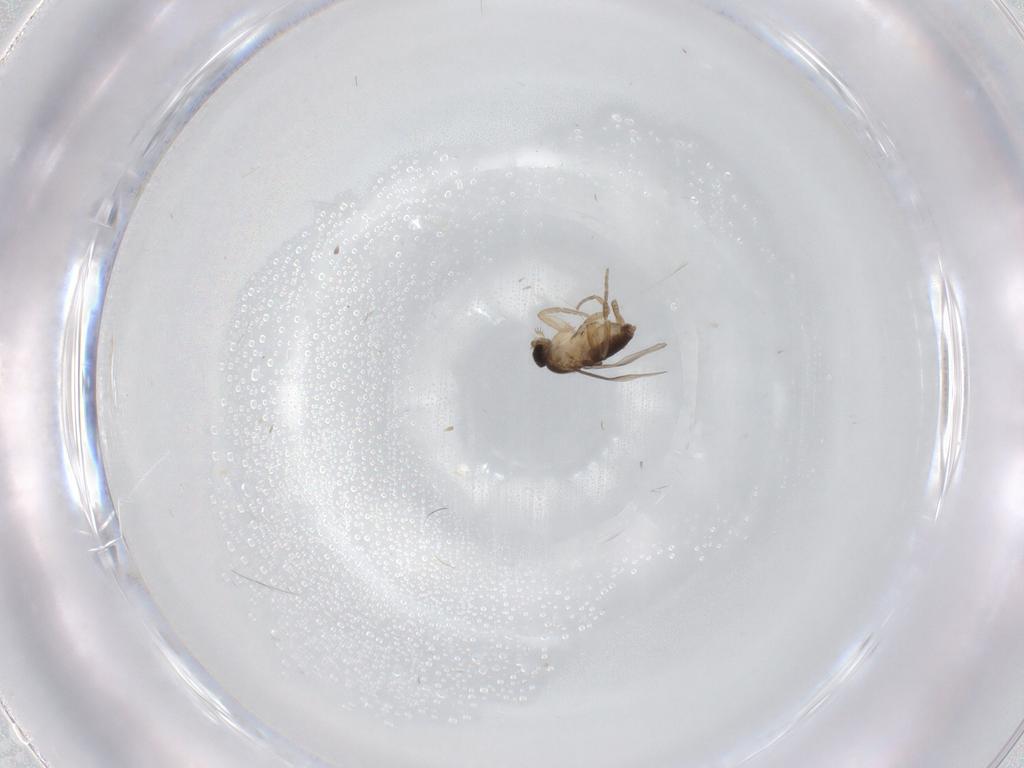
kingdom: Animalia
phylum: Arthropoda
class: Insecta
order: Diptera
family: Phoridae
